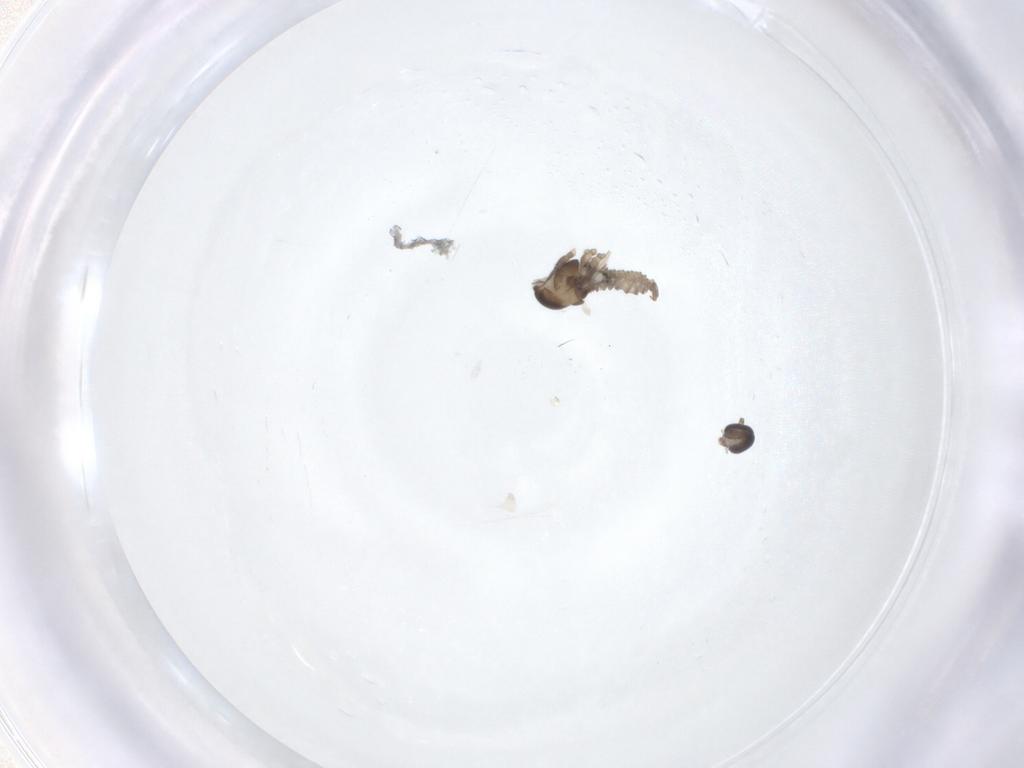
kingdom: Animalia
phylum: Arthropoda
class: Insecta
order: Diptera
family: Cecidomyiidae
